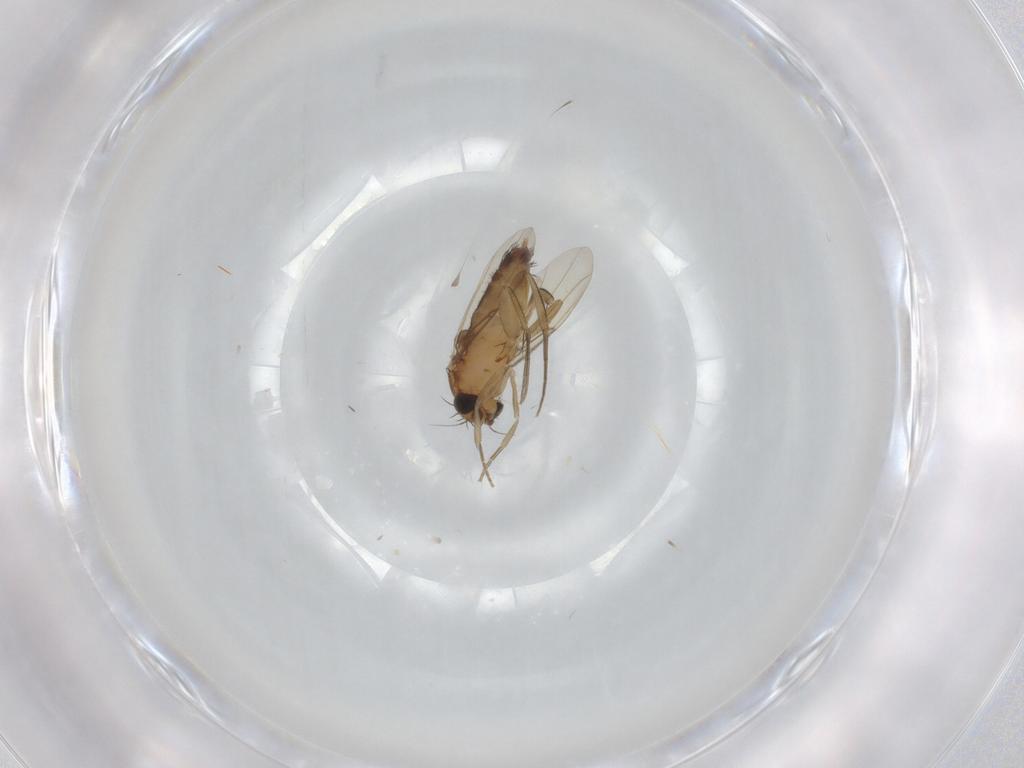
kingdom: Animalia
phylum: Arthropoda
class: Insecta
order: Diptera
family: Phoridae
